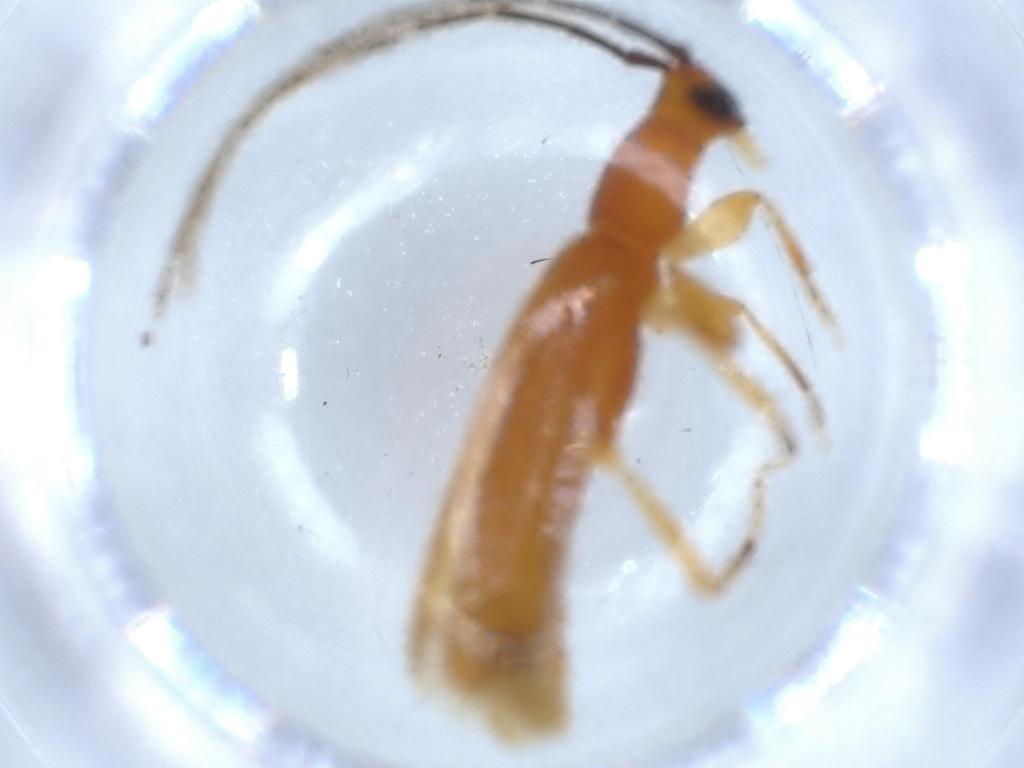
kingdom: Animalia
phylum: Arthropoda
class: Insecta
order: Coleoptera
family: Cerambycidae
